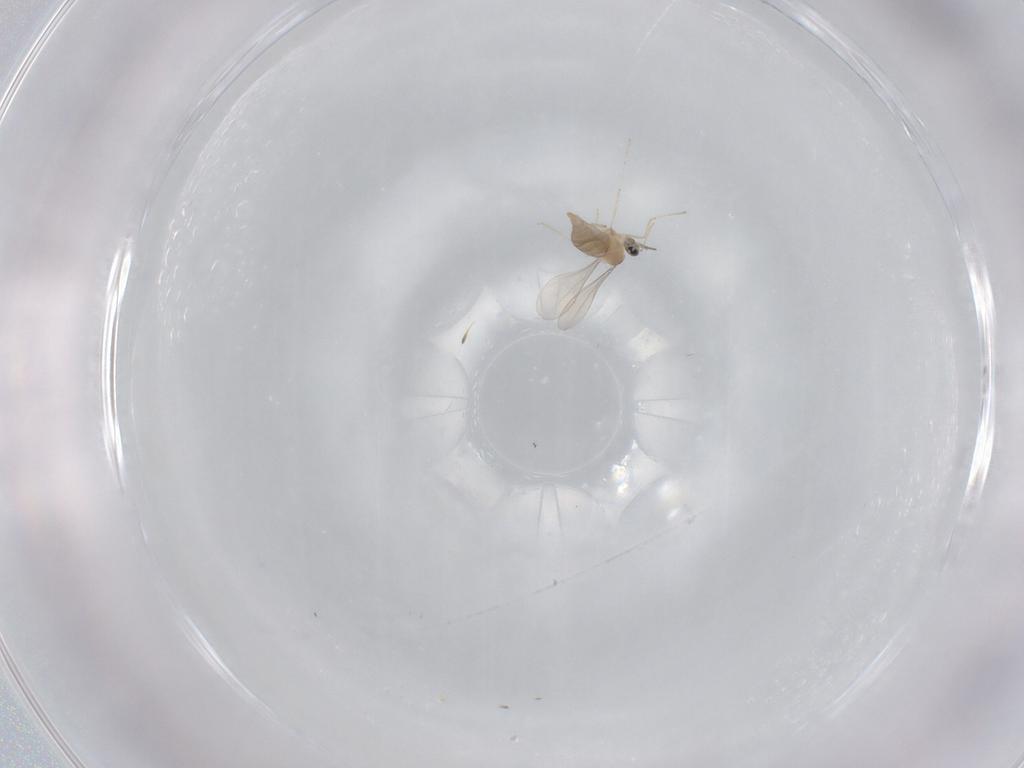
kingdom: Animalia
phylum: Arthropoda
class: Insecta
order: Diptera
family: Cecidomyiidae
